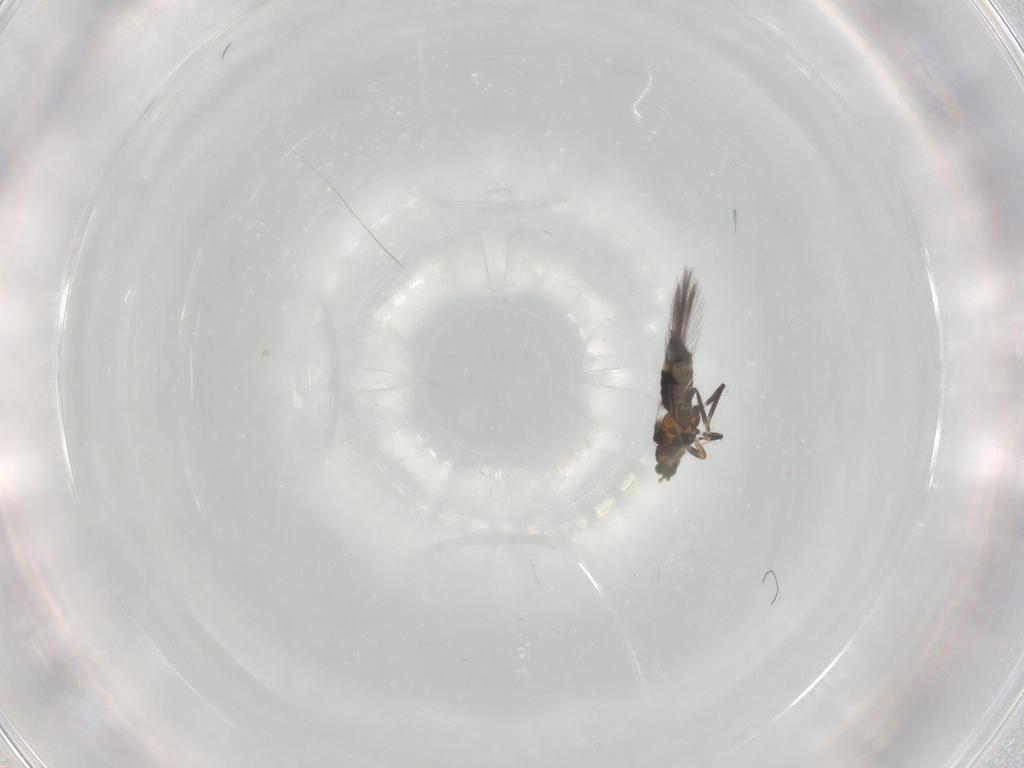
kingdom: Animalia
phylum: Arthropoda
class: Insecta
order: Thysanoptera
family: Thripidae
